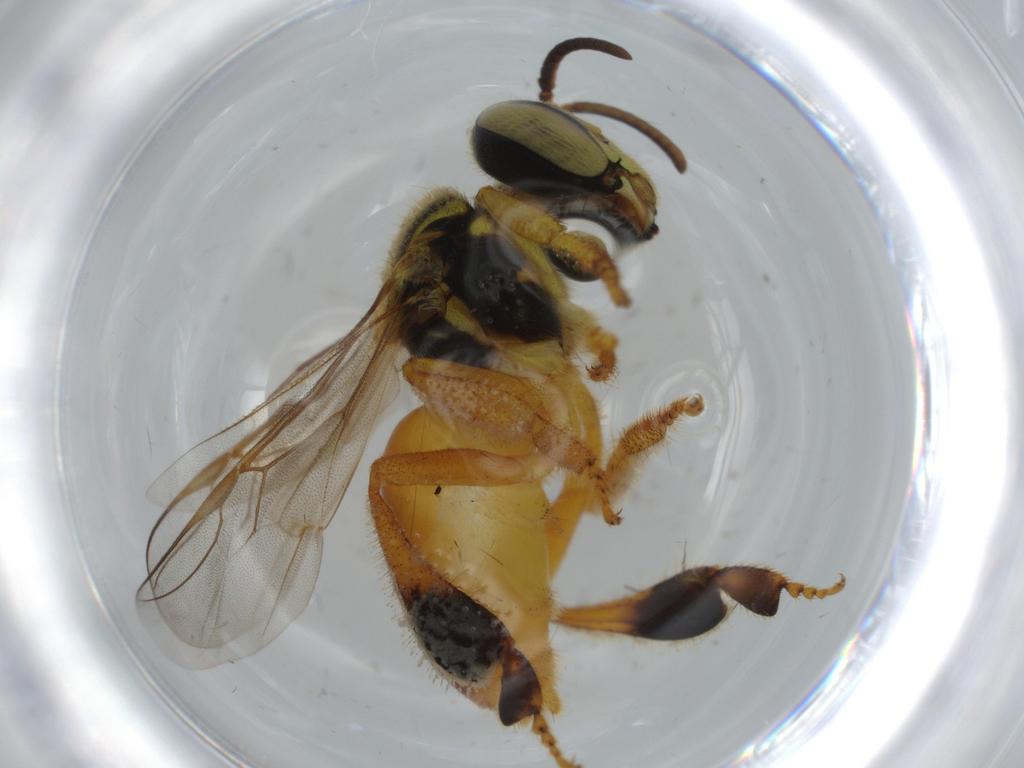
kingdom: Animalia
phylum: Arthropoda
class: Insecta
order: Hymenoptera
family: Apidae
